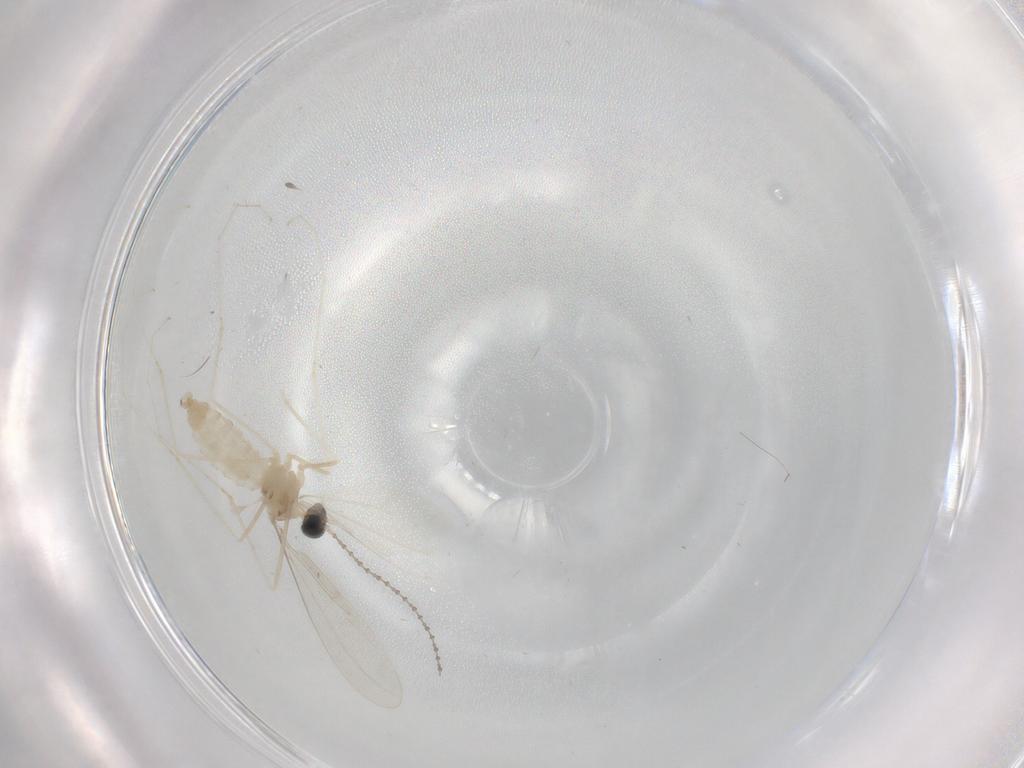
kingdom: Animalia
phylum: Arthropoda
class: Insecta
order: Diptera
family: Cecidomyiidae
